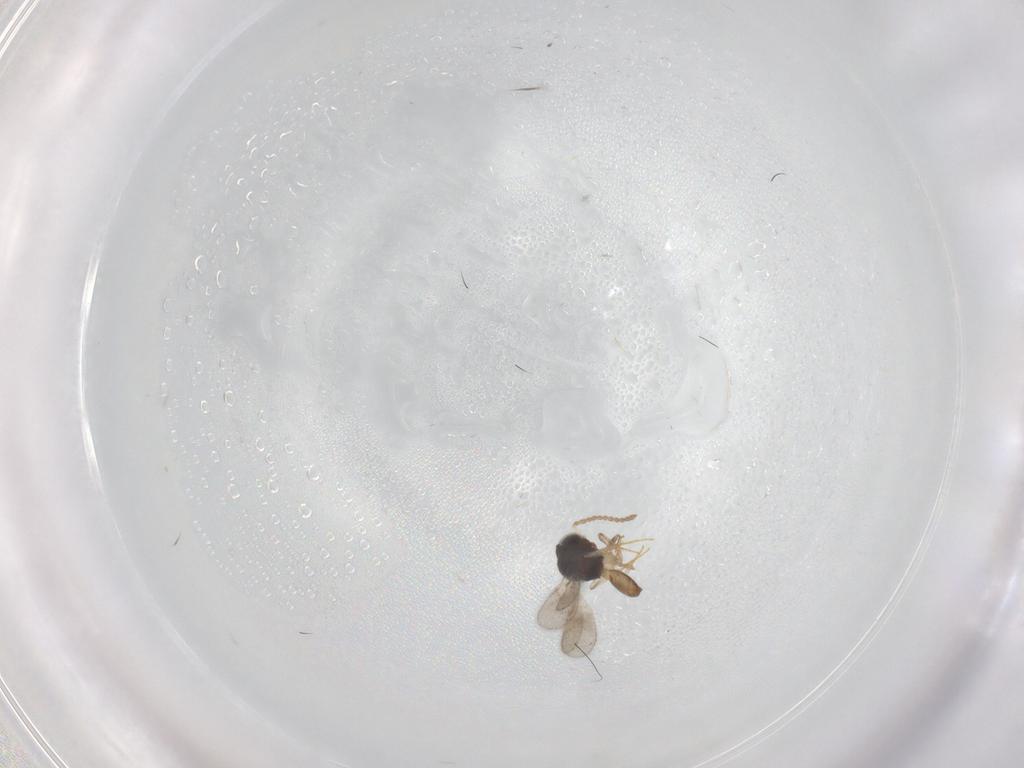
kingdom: Animalia
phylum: Arthropoda
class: Insecta
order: Hymenoptera
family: Scelionidae
